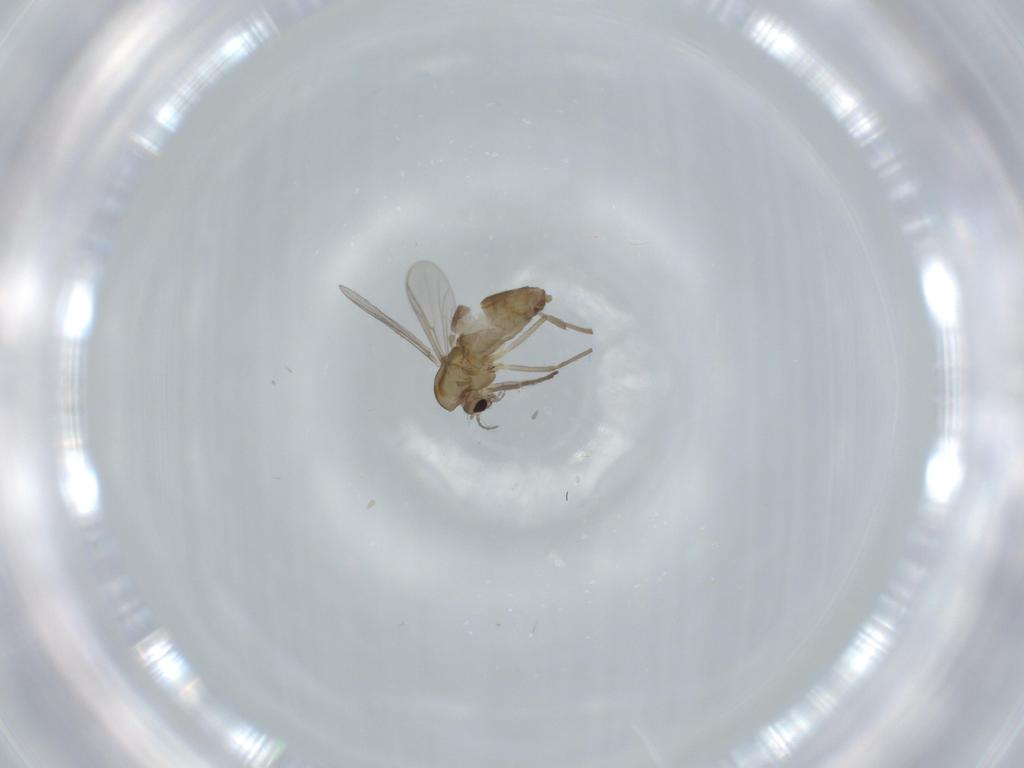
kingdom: Animalia
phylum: Arthropoda
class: Insecta
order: Diptera
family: Chironomidae
